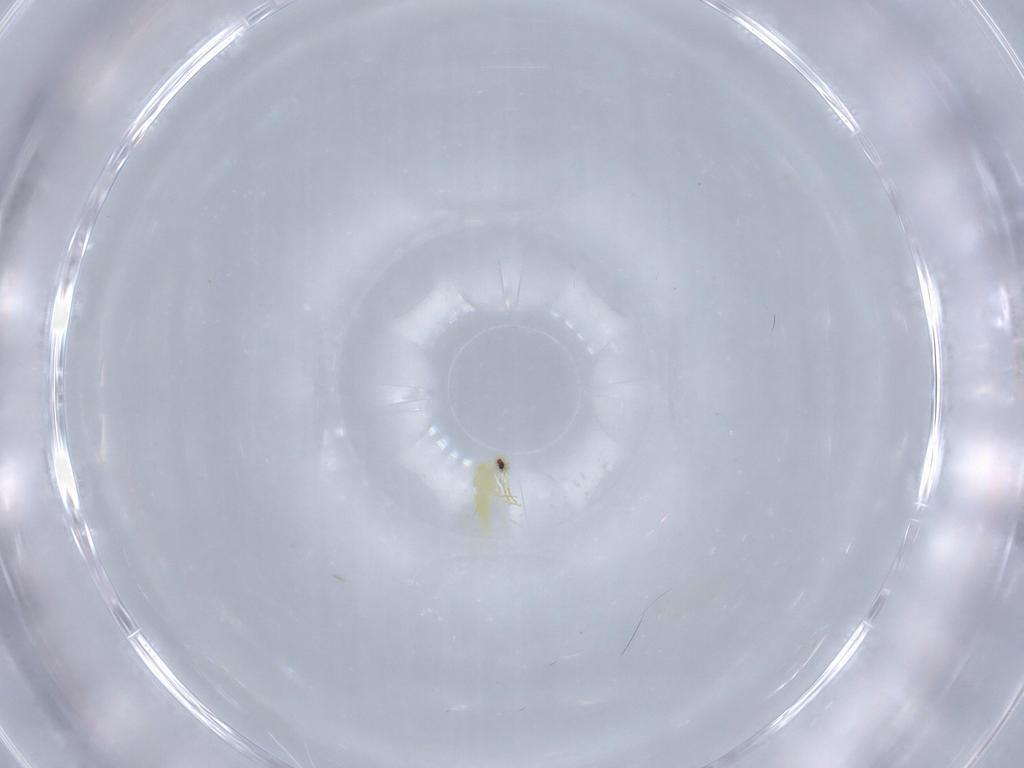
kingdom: Animalia
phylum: Arthropoda
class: Insecta
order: Hemiptera
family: Aleyrodidae
